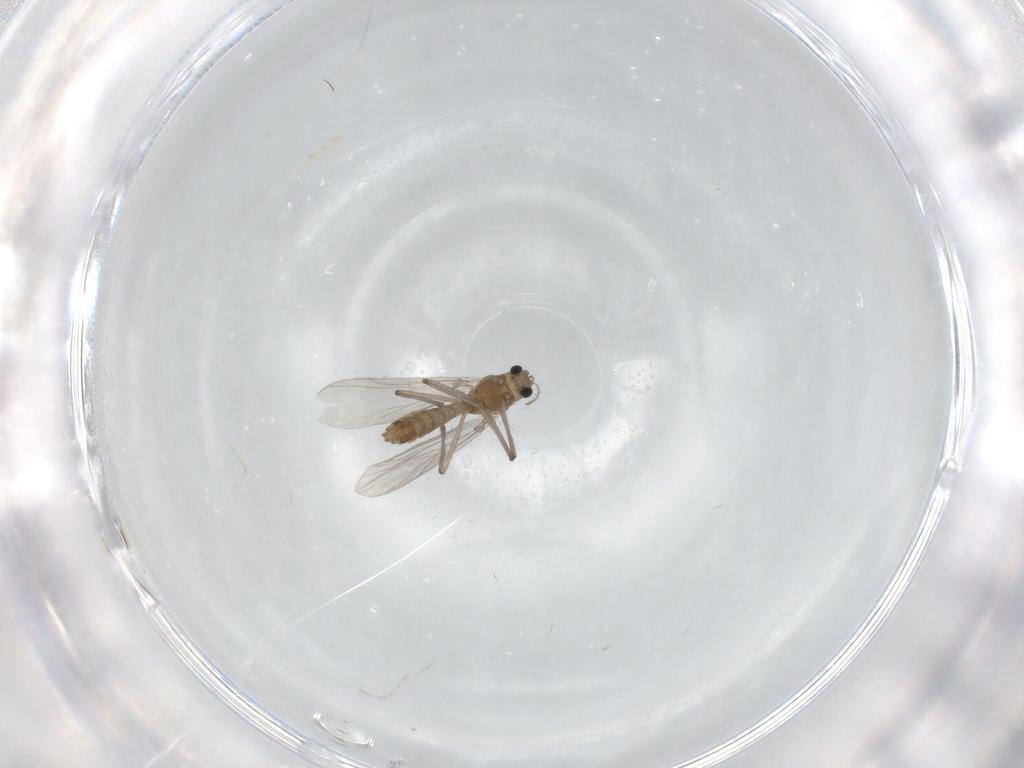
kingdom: Animalia
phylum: Arthropoda
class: Insecta
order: Diptera
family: Chironomidae
